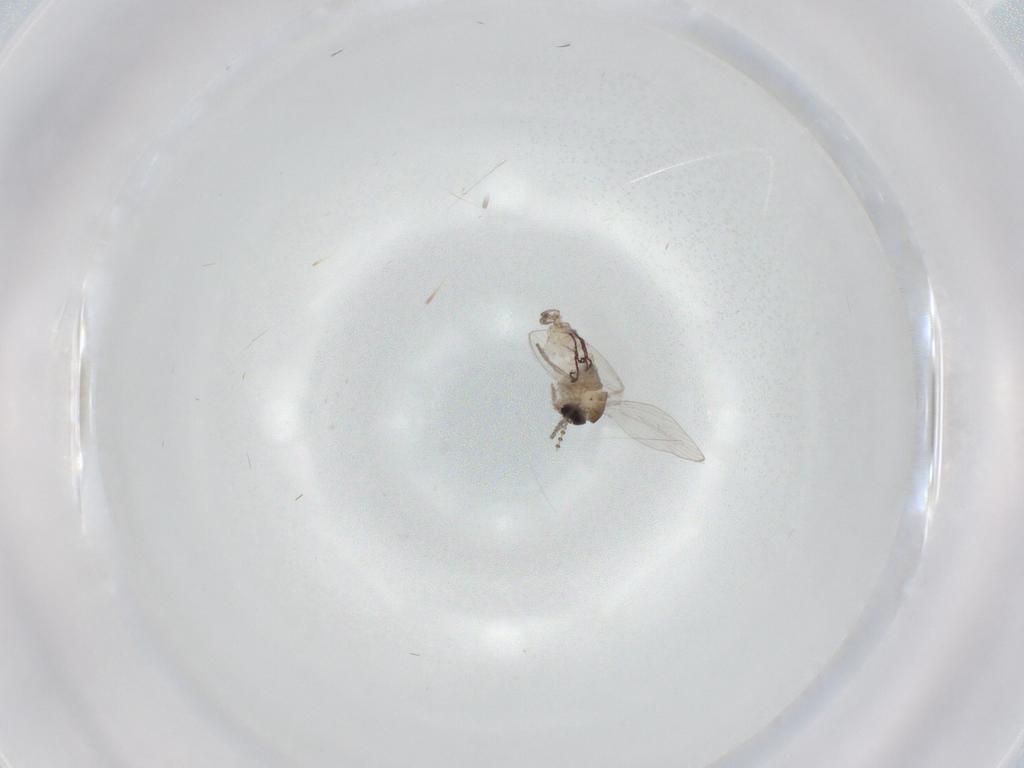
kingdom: Animalia
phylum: Arthropoda
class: Insecta
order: Diptera
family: Psychodidae
